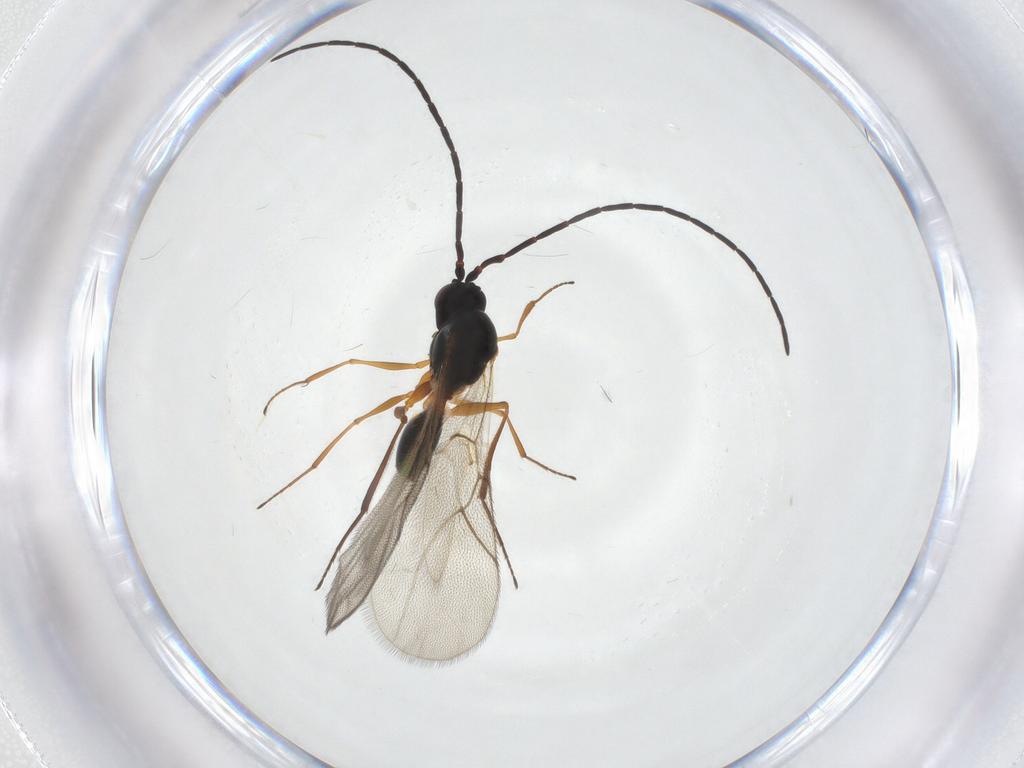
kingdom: Animalia
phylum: Arthropoda
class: Insecta
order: Hymenoptera
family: Figitidae
